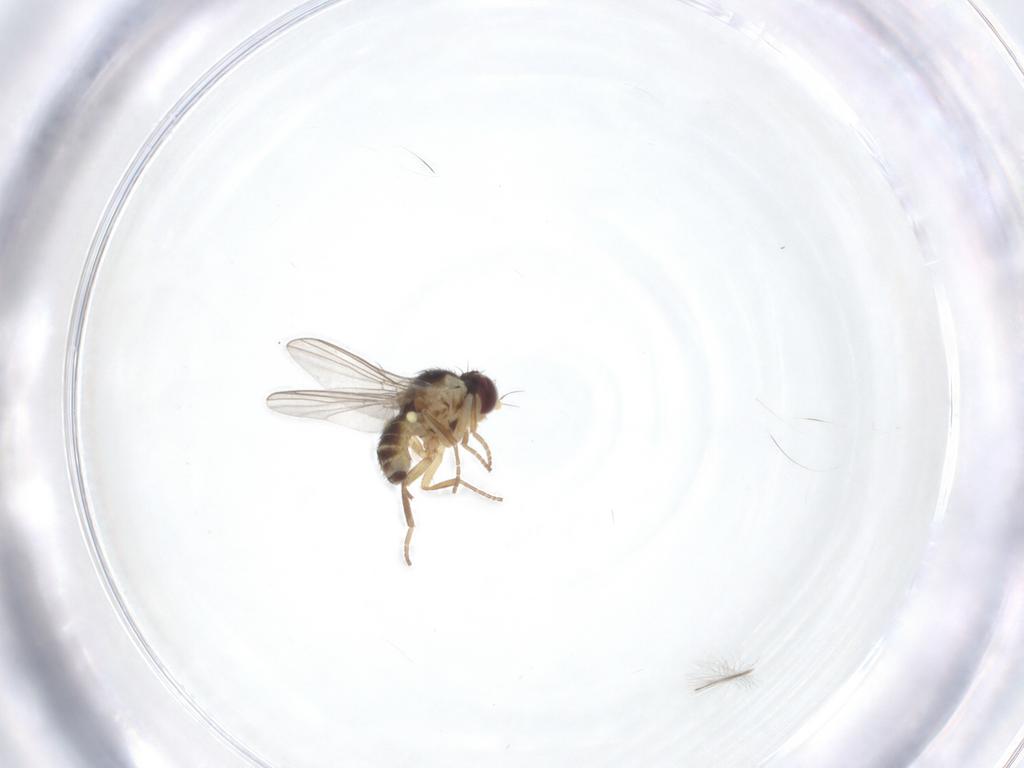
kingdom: Animalia
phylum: Arthropoda
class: Insecta
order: Diptera
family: Agromyzidae
